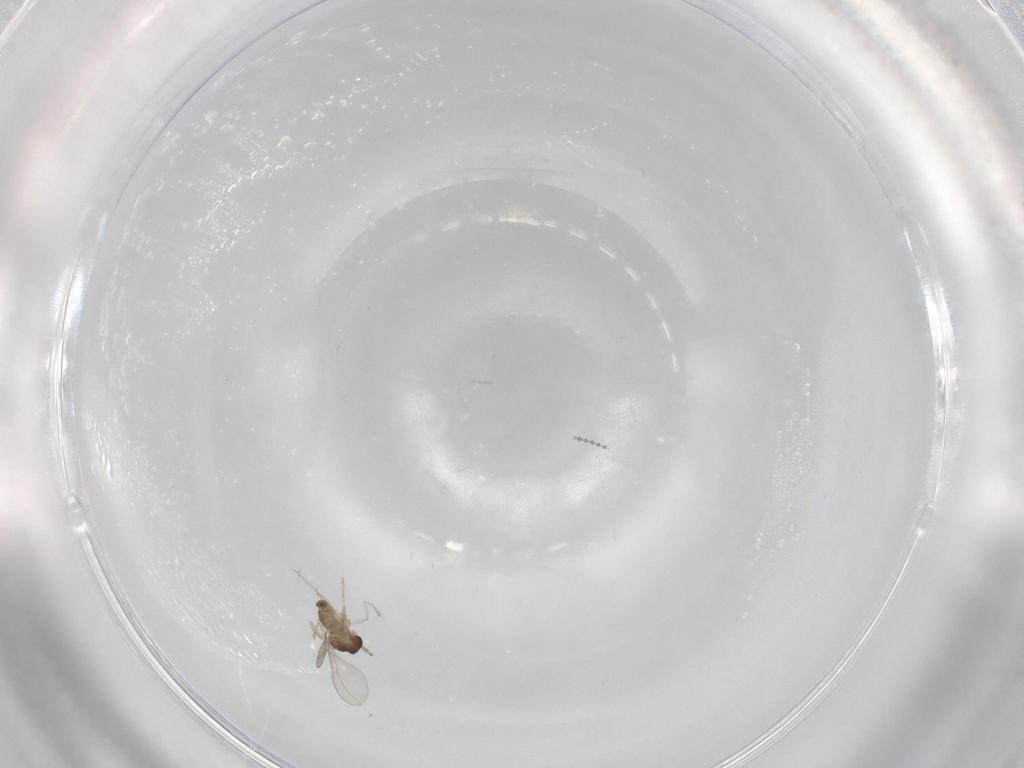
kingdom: Animalia
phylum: Arthropoda
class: Insecta
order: Diptera
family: Cecidomyiidae
